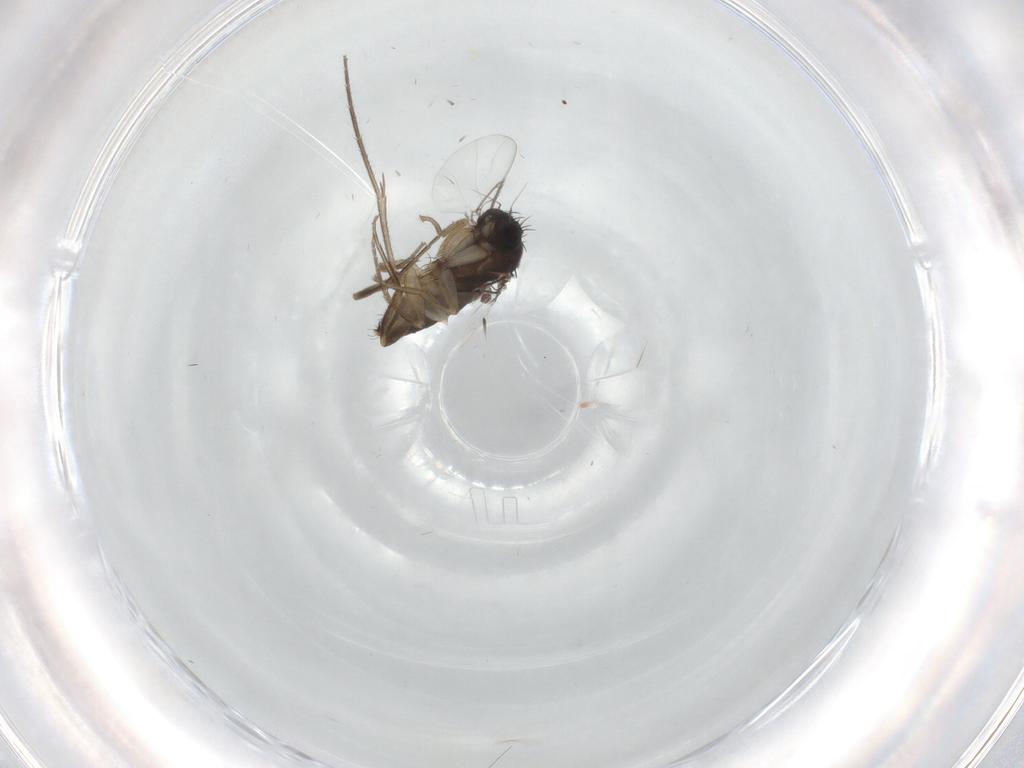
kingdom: Animalia
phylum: Arthropoda
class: Insecta
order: Diptera
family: Phoridae
